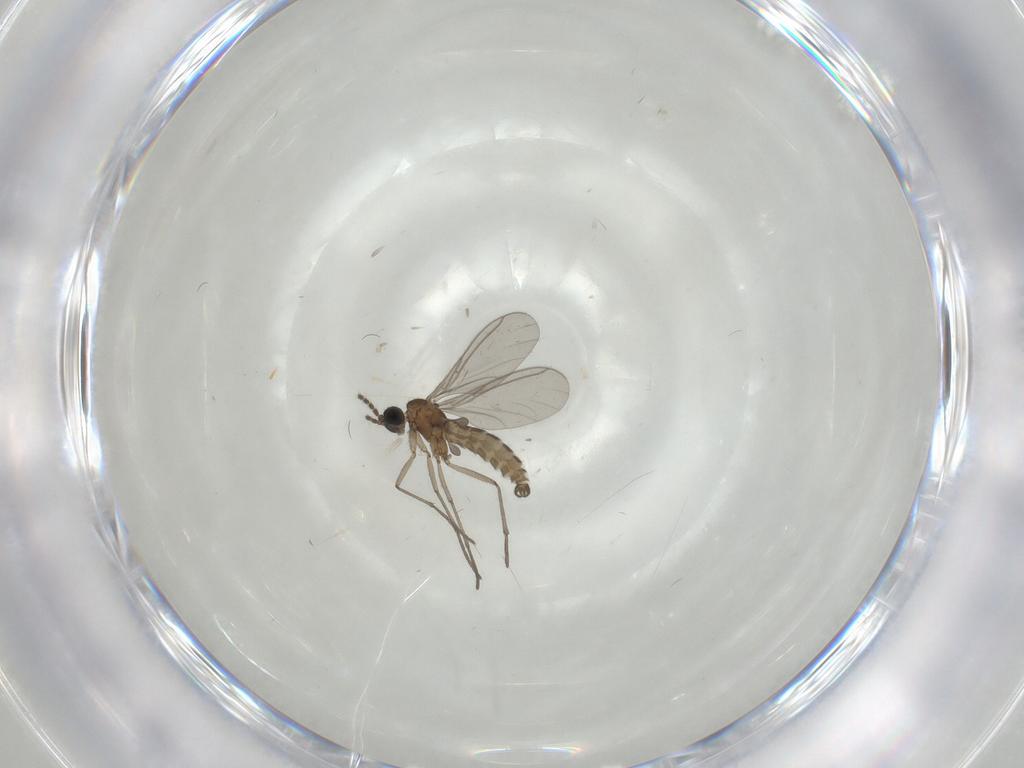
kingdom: Animalia
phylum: Arthropoda
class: Insecta
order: Diptera
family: Sciaridae
